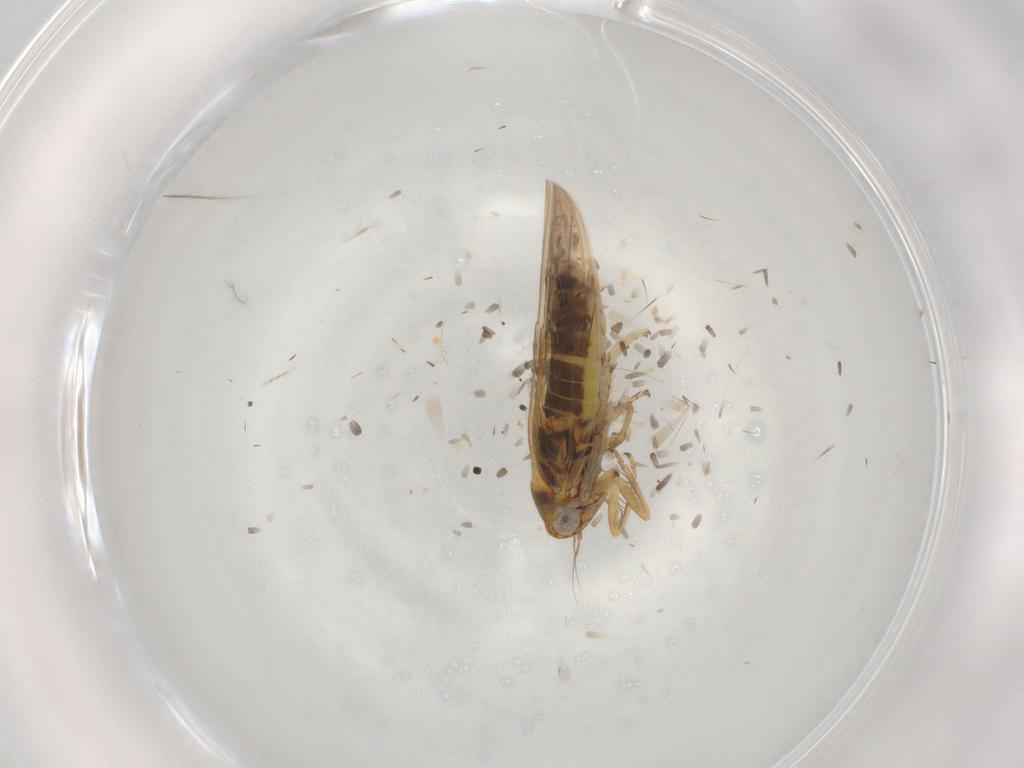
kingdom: Animalia
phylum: Arthropoda
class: Insecta
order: Hemiptera
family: Cicadellidae
